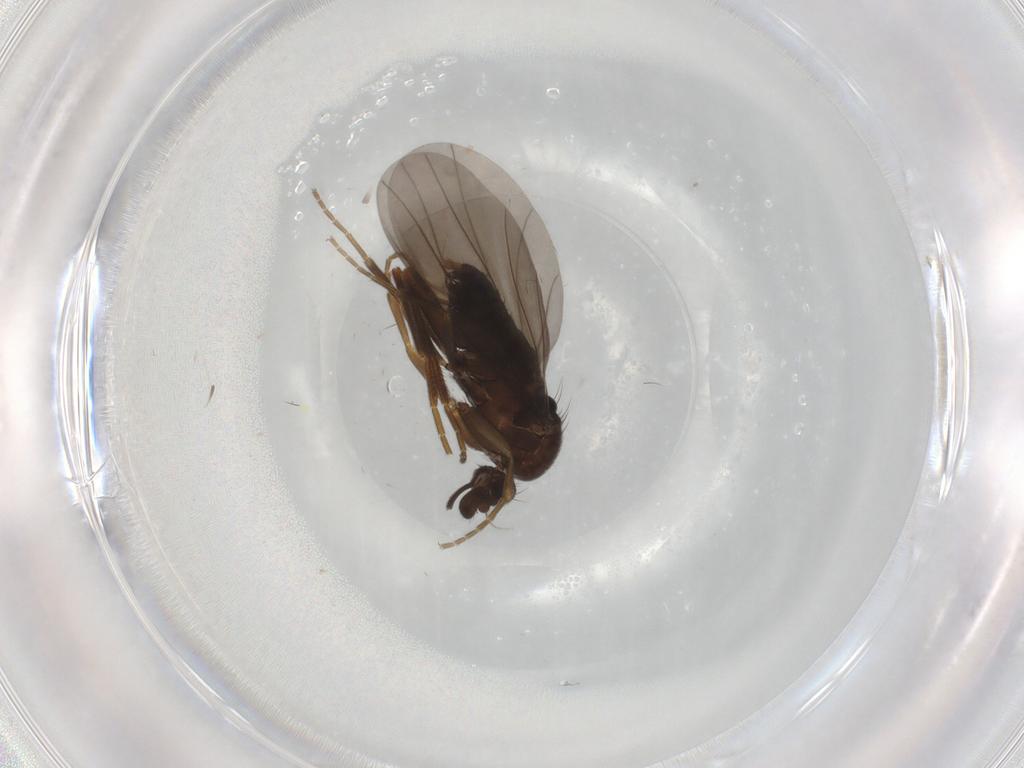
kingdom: Animalia
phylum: Arthropoda
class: Insecta
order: Diptera
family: Phoridae
